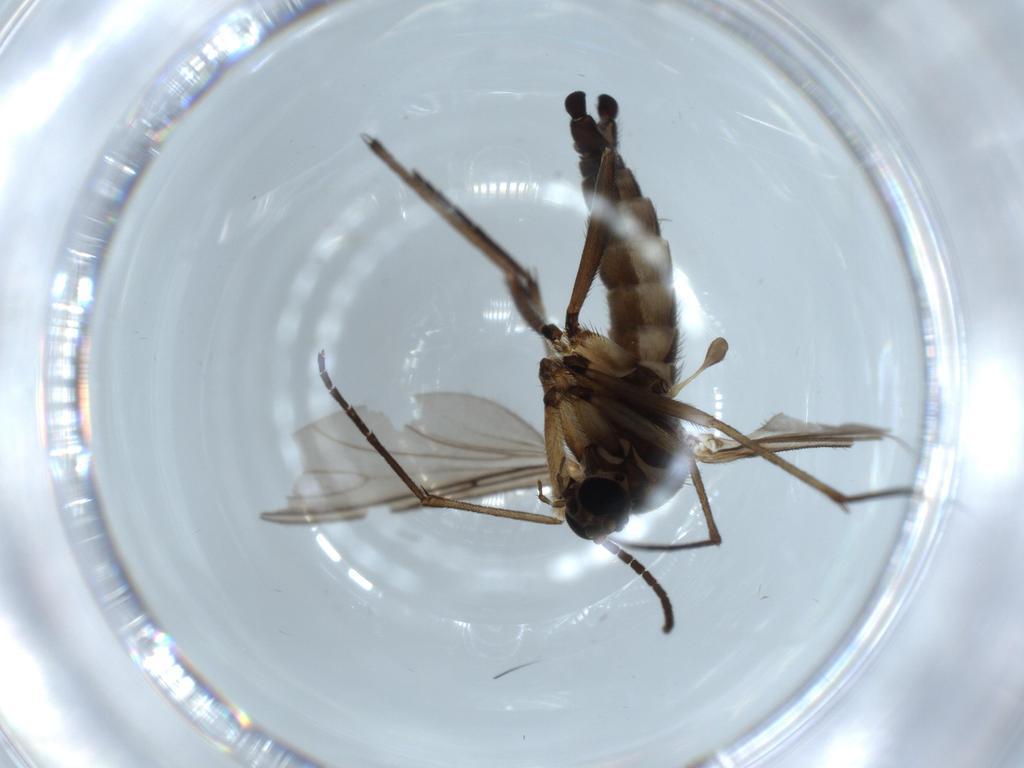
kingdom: Animalia
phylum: Arthropoda
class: Insecta
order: Diptera
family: Sciaridae
